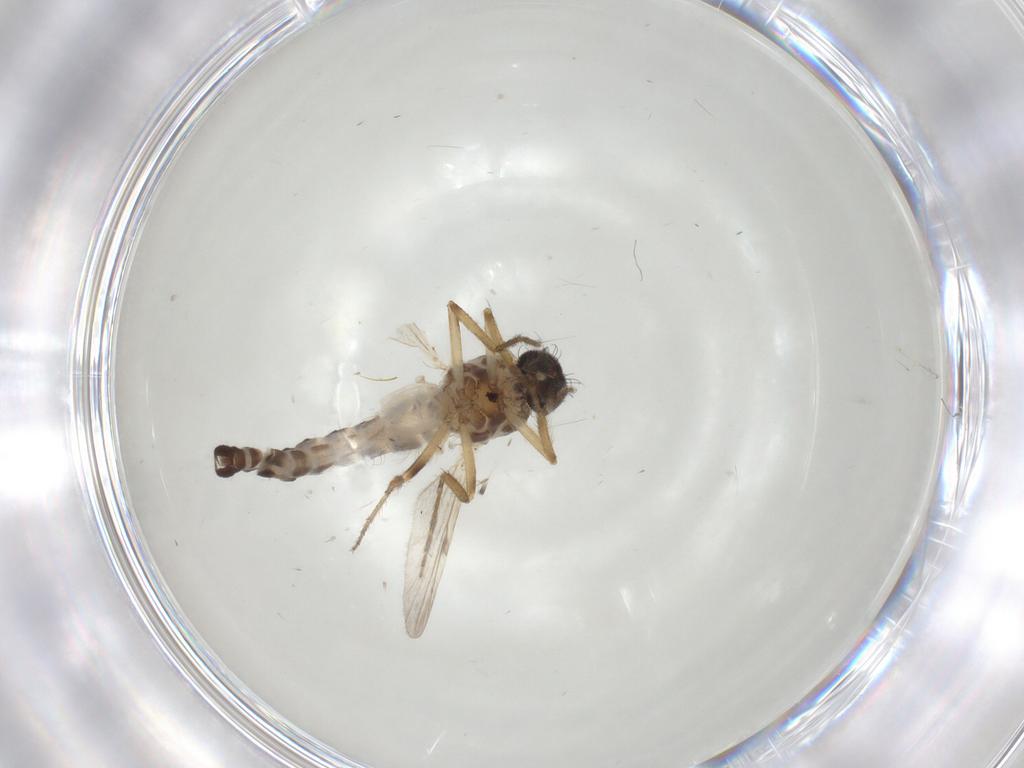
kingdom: Animalia
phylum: Arthropoda
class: Insecta
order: Diptera
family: Ceratopogonidae
